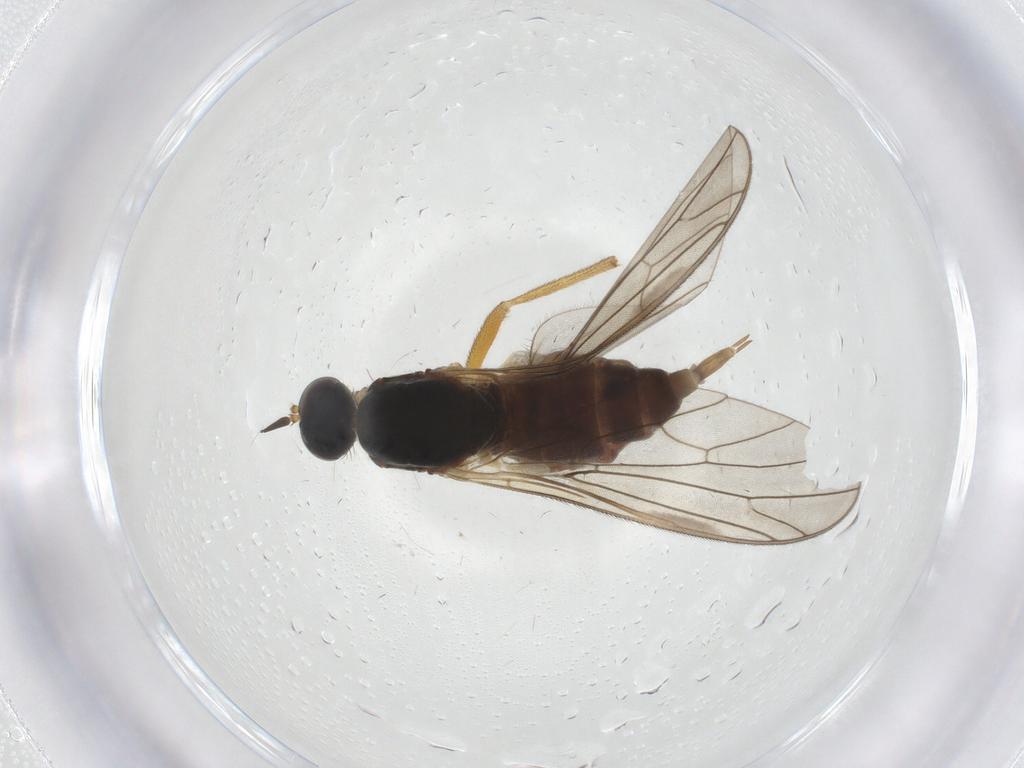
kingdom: Animalia
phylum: Arthropoda
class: Insecta
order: Diptera
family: Empididae
